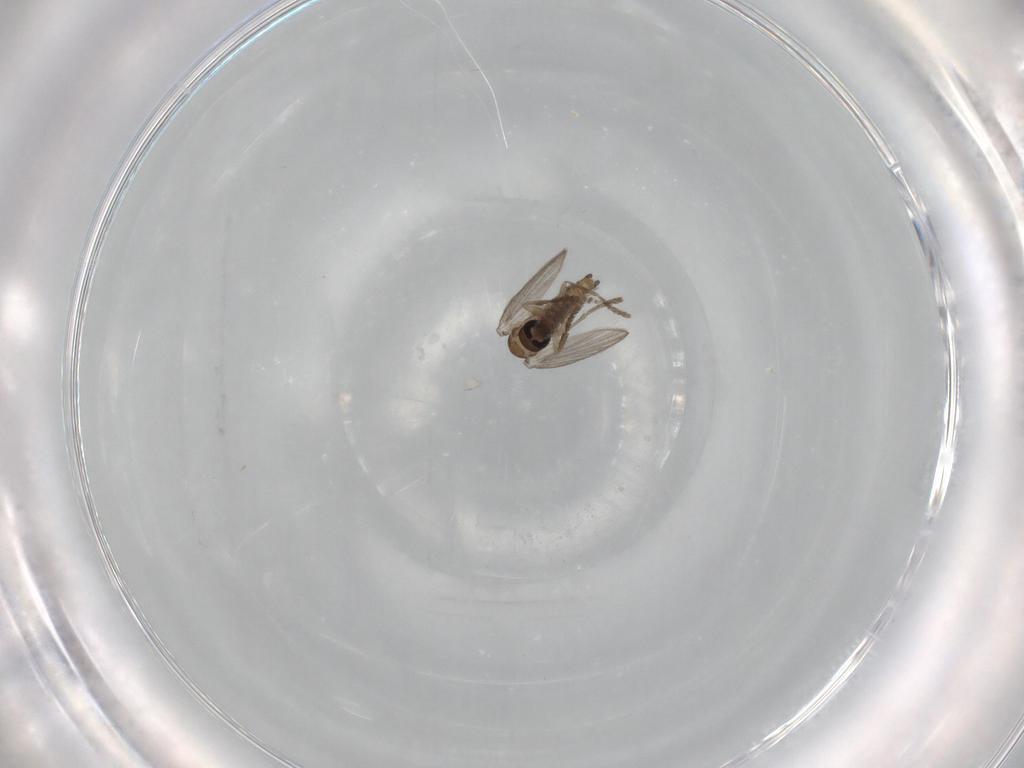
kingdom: Animalia
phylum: Arthropoda
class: Insecta
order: Diptera
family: Psychodidae
